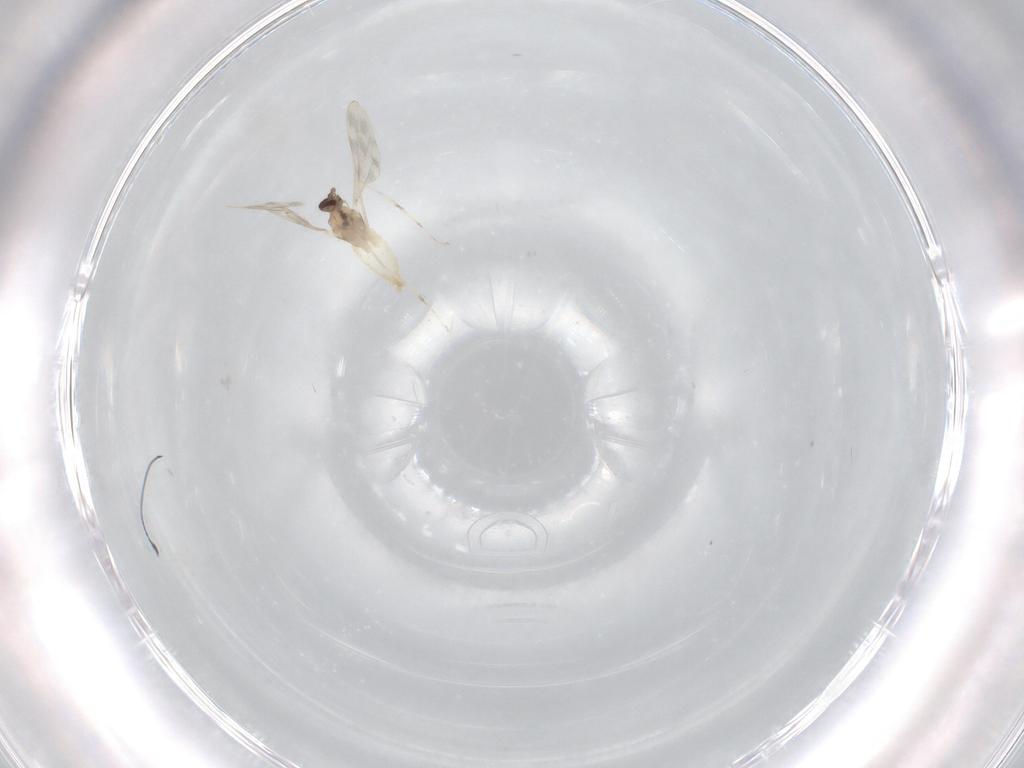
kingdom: Animalia
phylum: Arthropoda
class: Insecta
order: Diptera
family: Cecidomyiidae
